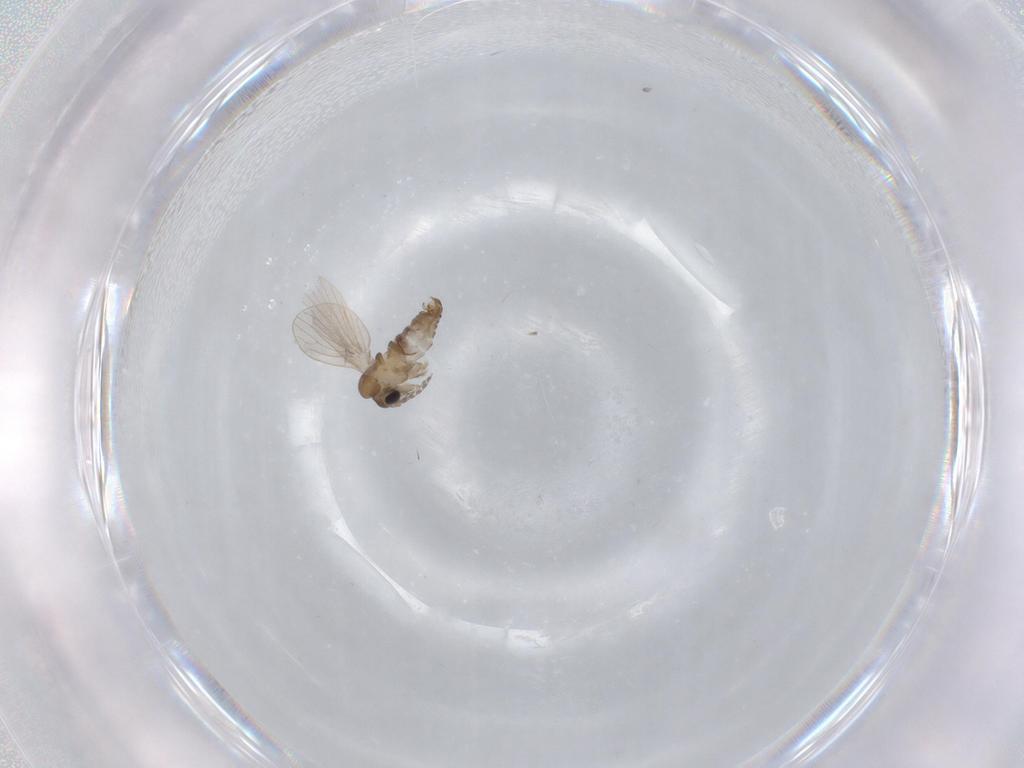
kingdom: Animalia
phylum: Arthropoda
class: Insecta
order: Diptera
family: Psychodidae
